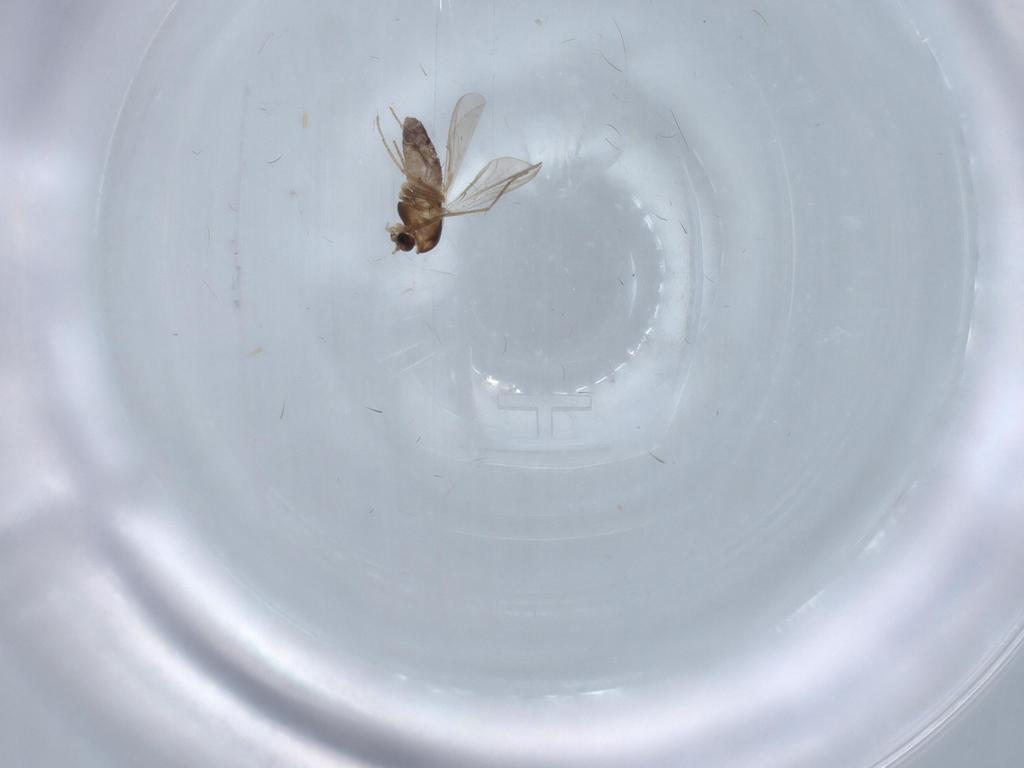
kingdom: Animalia
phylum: Arthropoda
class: Insecta
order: Diptera
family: Chironomidae
